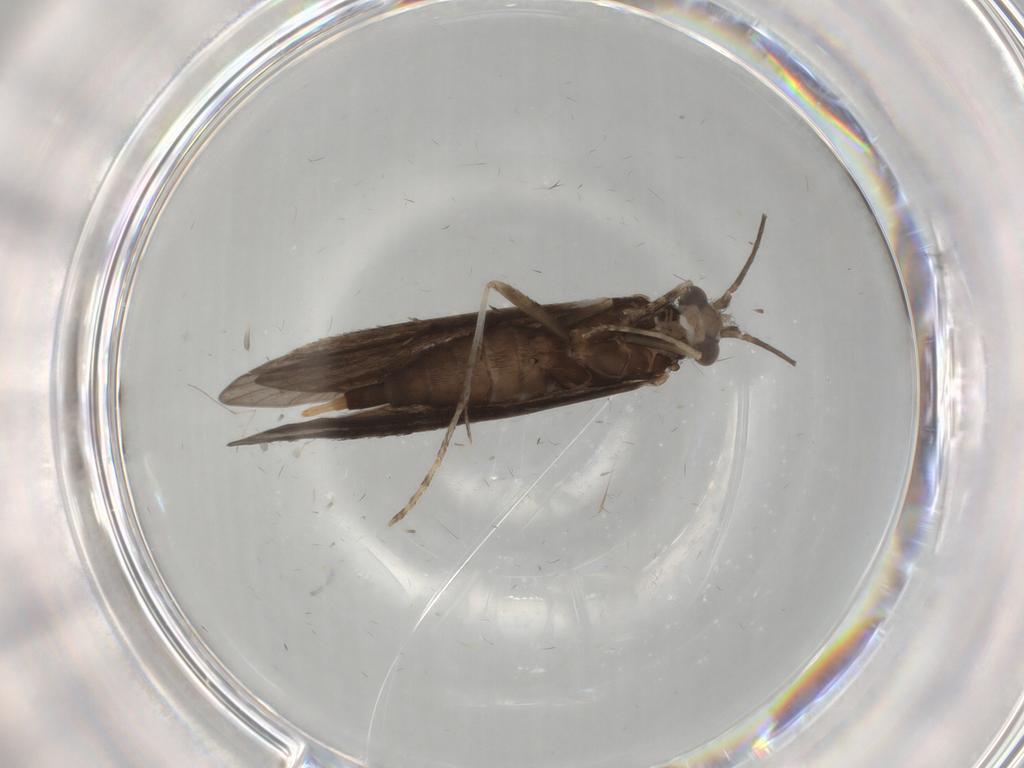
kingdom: Animalia
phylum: Arthropoda
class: Insecta
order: Trichoptera
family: Xiphocentronidae
